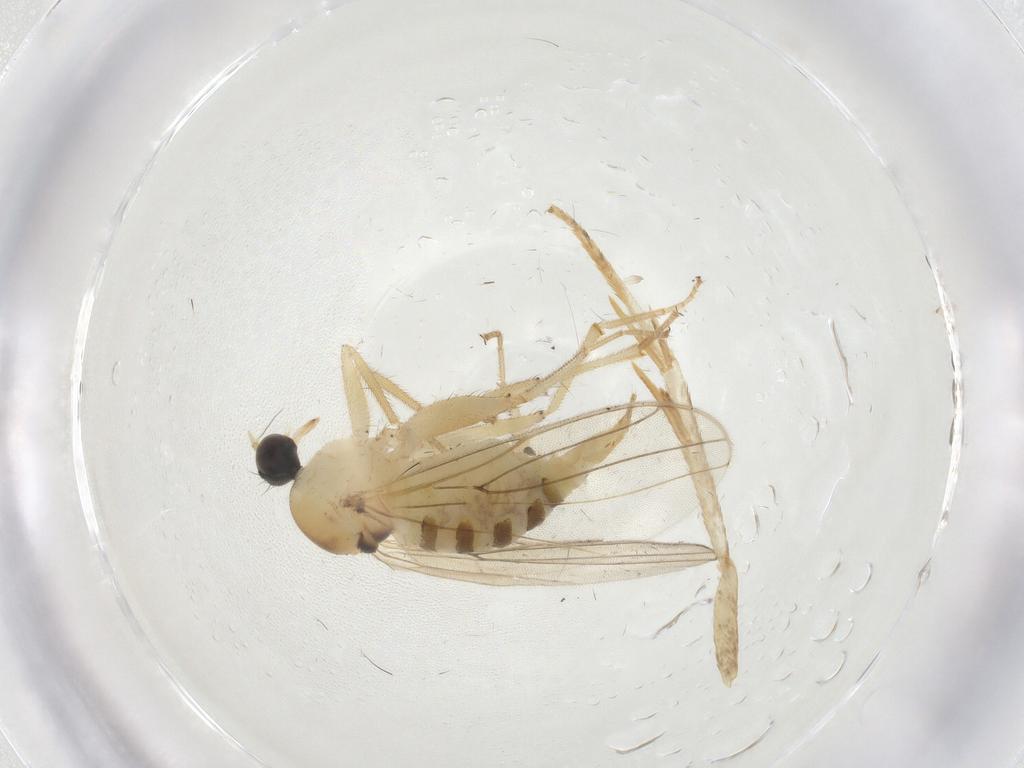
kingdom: Animalia
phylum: Arthropoda
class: Insecta
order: Diptera
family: Hybotidae
